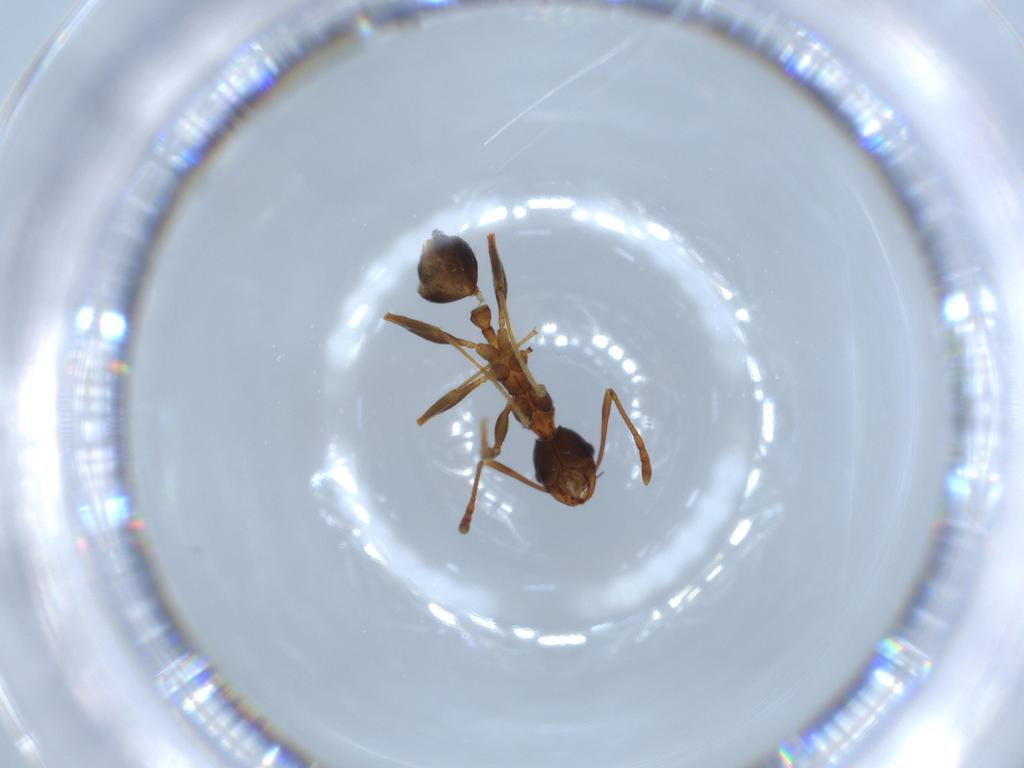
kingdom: Animalia
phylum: Arthropoda
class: Insecta
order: Hymenoptera
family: Formicidae
